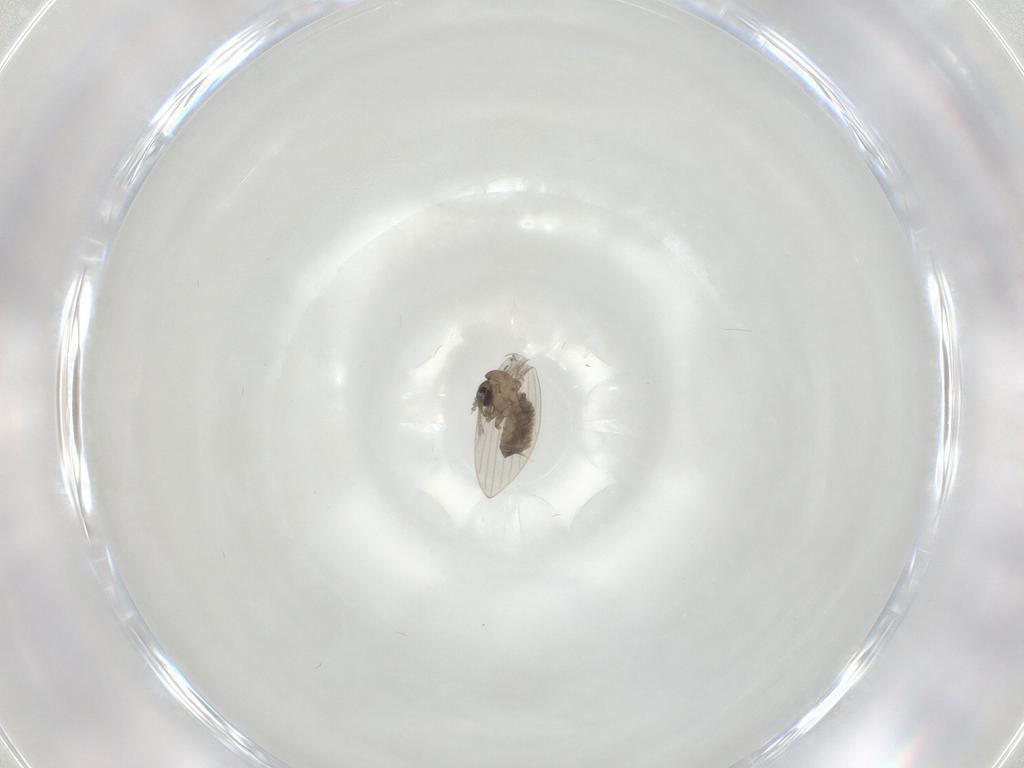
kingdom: Animalia
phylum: Arthropoda
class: Insecta
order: Diptera
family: Psychodidae
